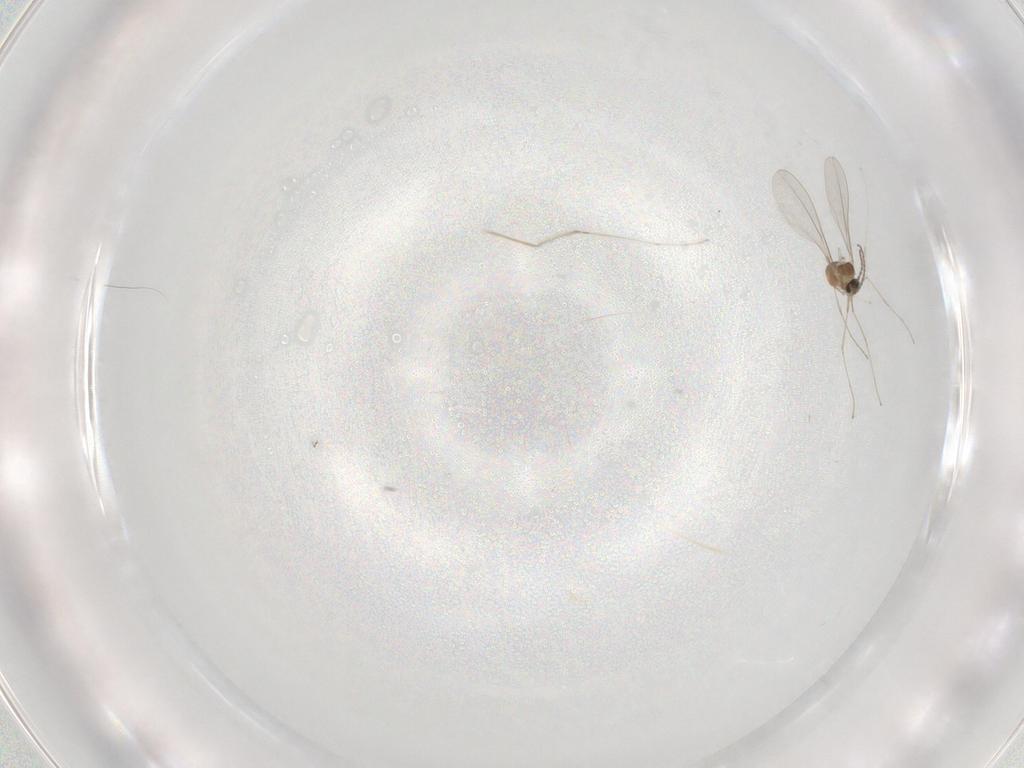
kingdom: Animalia
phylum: Arthropoda
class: Insecta
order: Diptera
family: Cecidomyiidae
